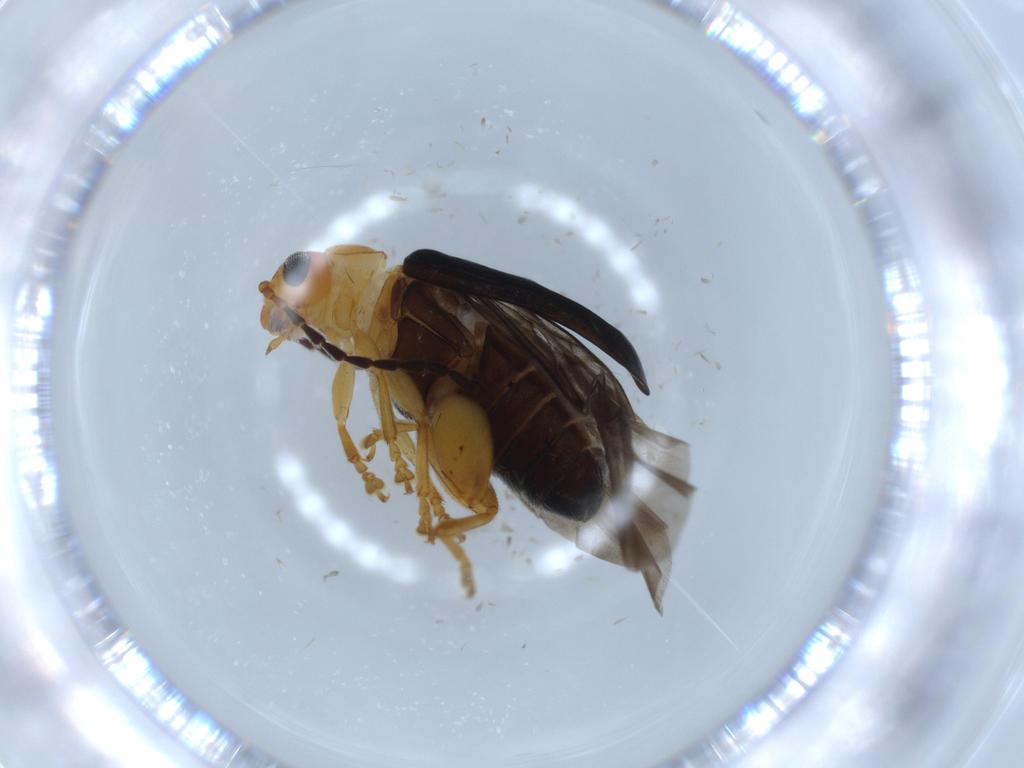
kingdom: Animalia
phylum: Arthropoda
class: Insecta
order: Coleoptera
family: Chrysomelidae
